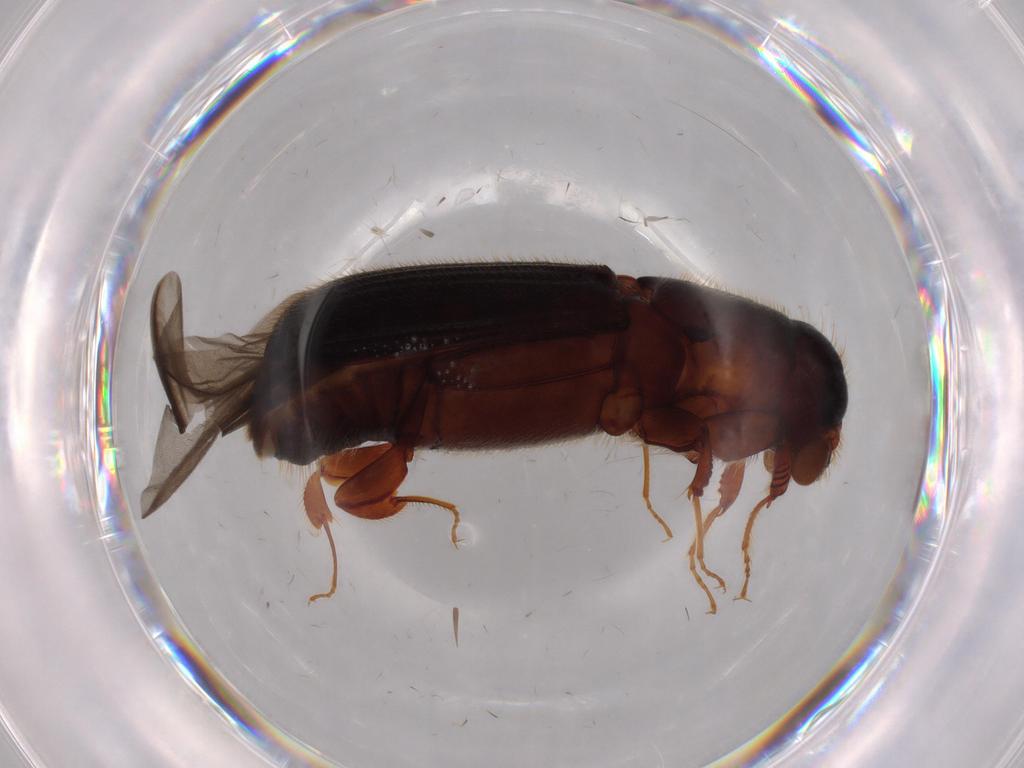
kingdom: Animalia
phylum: Arthropoda
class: Insecta
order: Coleoptera
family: Curculionidae
